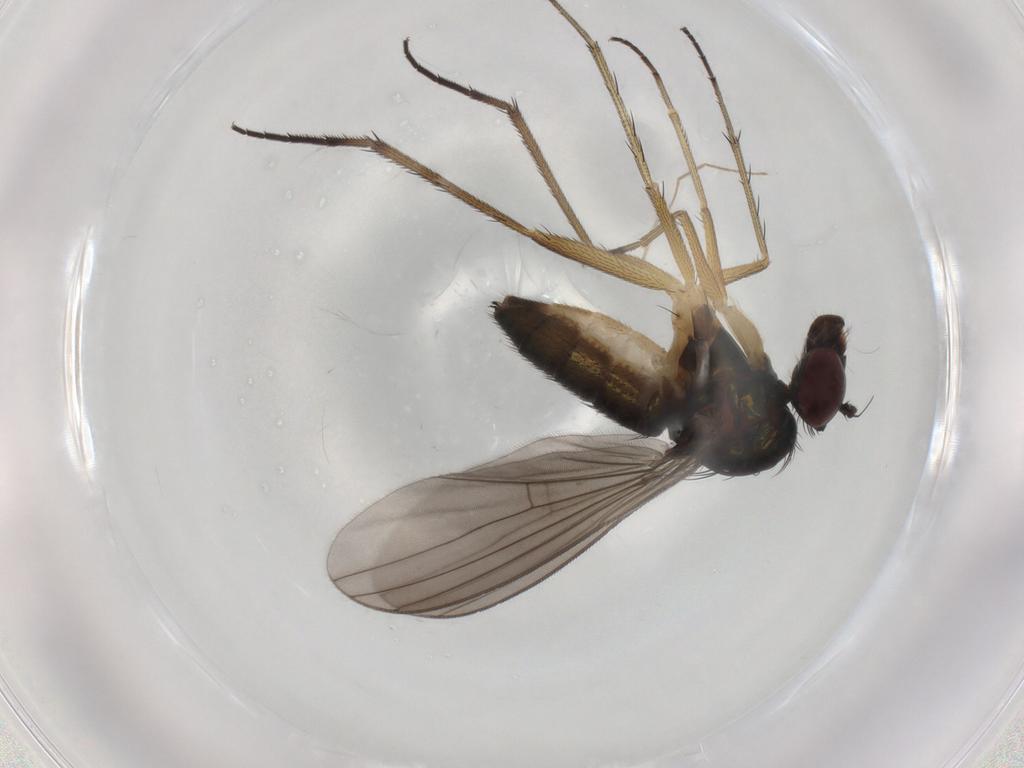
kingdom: Animalia
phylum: Arthropoda
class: Insecta
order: Diptera
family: Dolichopodidae
